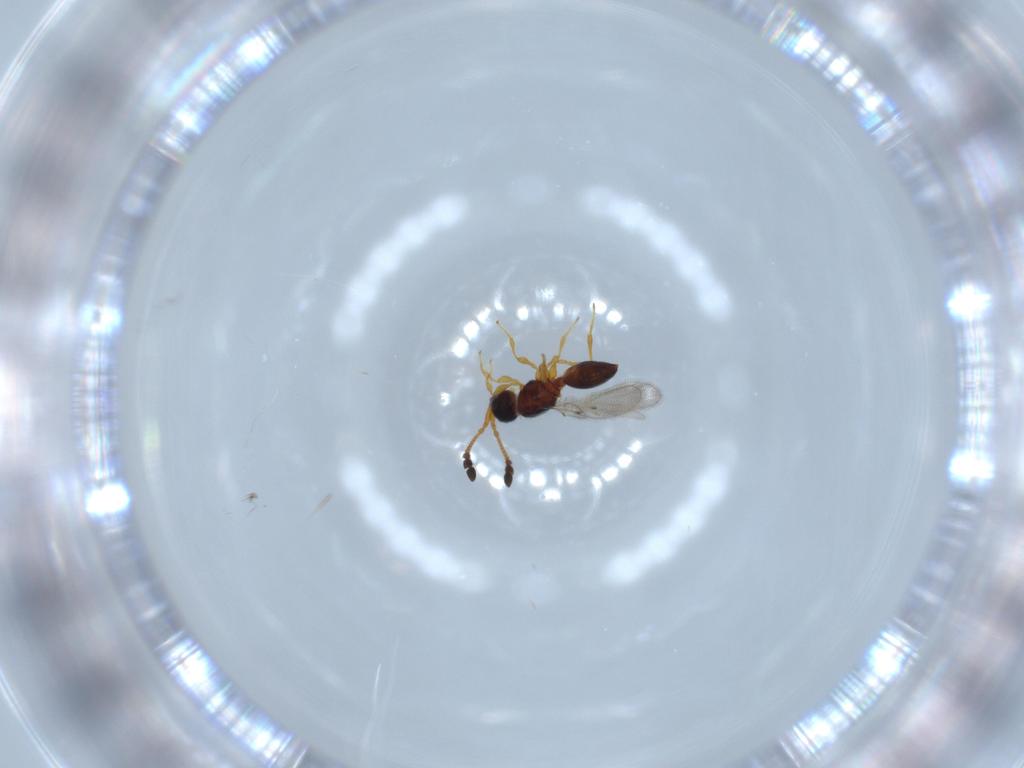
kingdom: Animalia
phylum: Arthropoda
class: Insecta
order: Hymenoptera
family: Diapriidae
